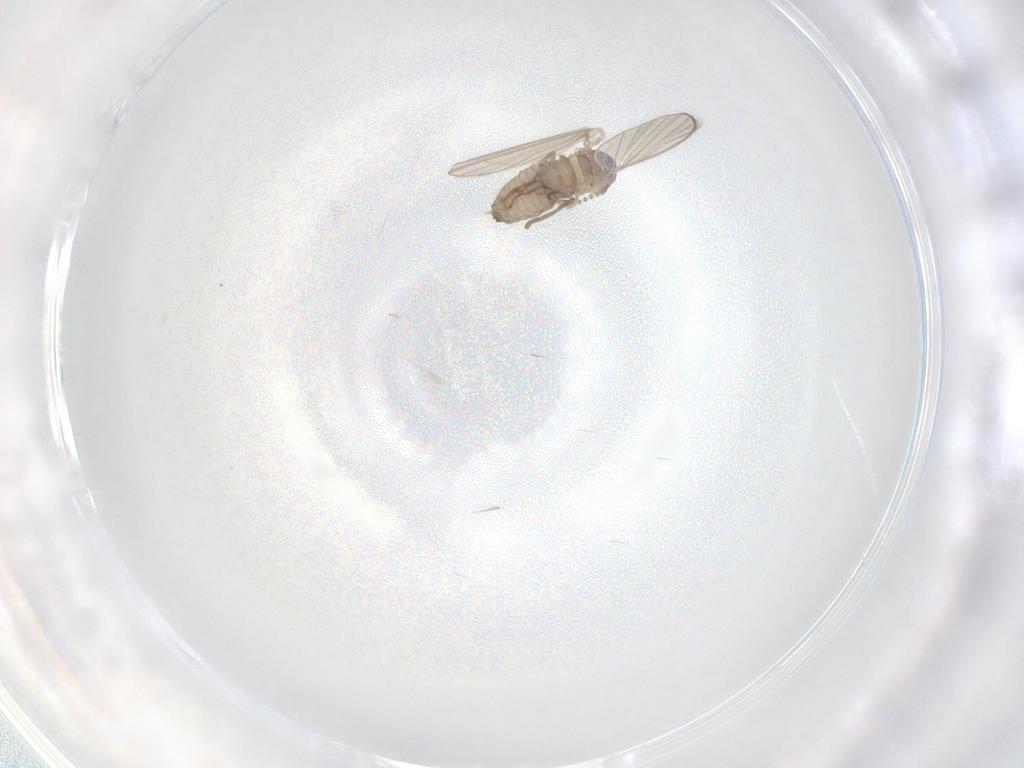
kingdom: Animalia
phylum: Arthropoda
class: Insecta
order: Diptera
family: Psychodidae
